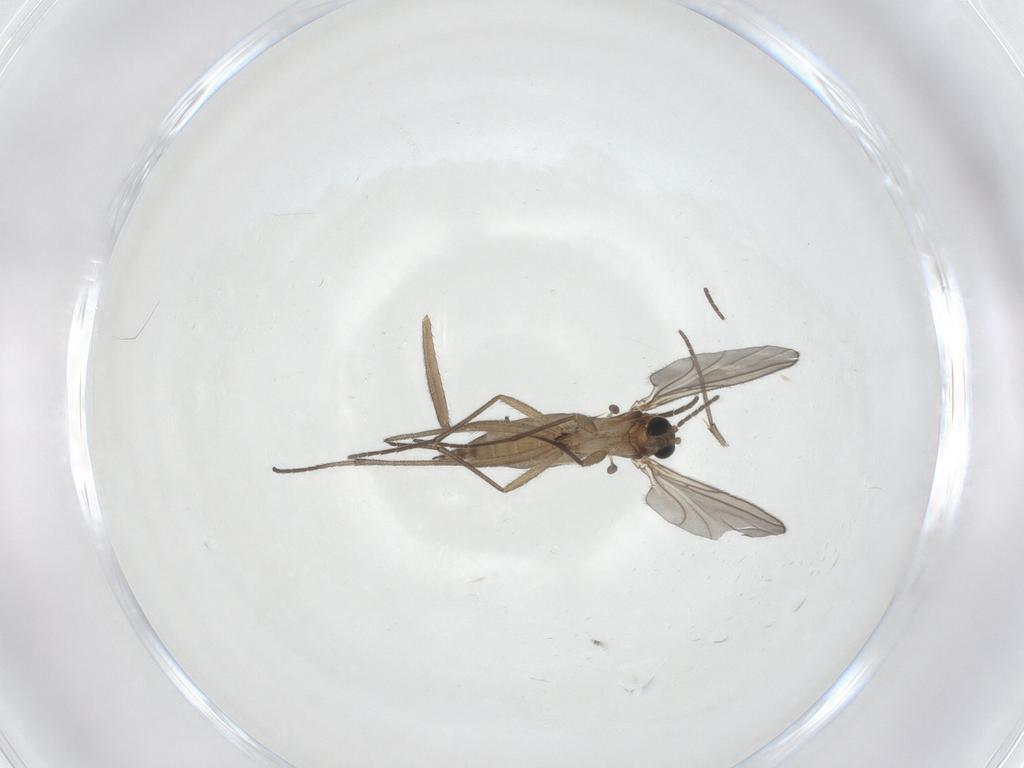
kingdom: Animalia
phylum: Arthropoda
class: Insecta
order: Diptera
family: Sciaridae
